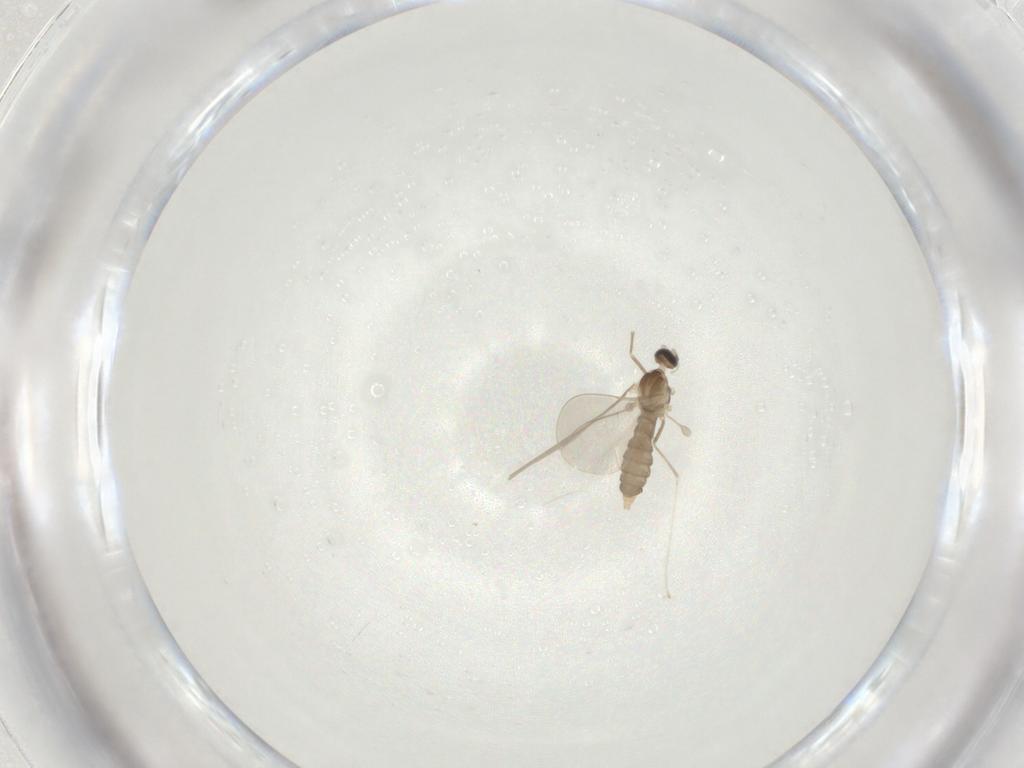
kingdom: Animalia
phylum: Arthropoda
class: Insecta
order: Diptera
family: Cecidomyiidae
